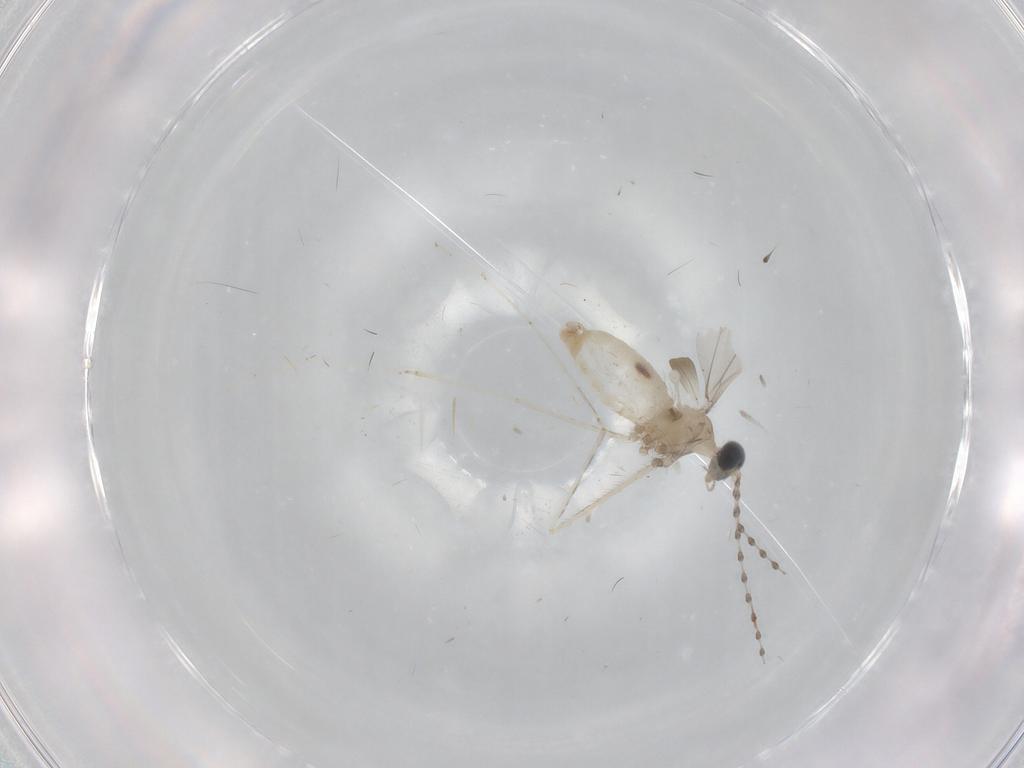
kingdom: Animalia
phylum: Arthropoda
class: Insecta
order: Diptera
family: Cecidomyiidae
